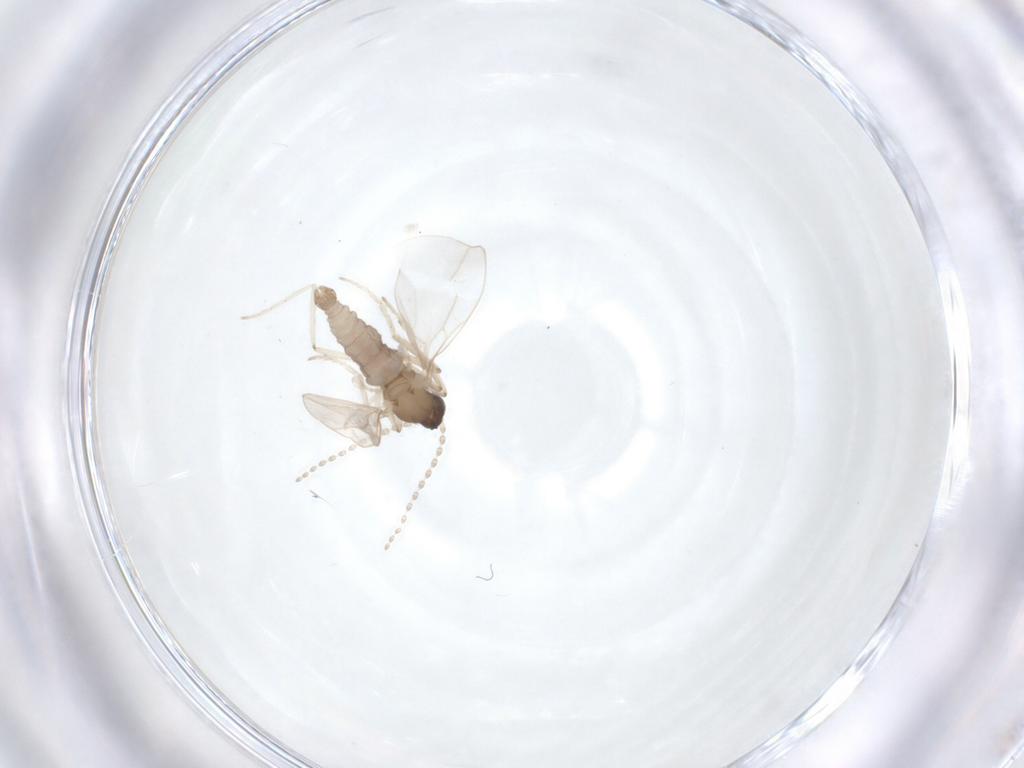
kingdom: Animalia
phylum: Arthropoda
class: Insecta
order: Diptera
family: Cecidomyiidae
